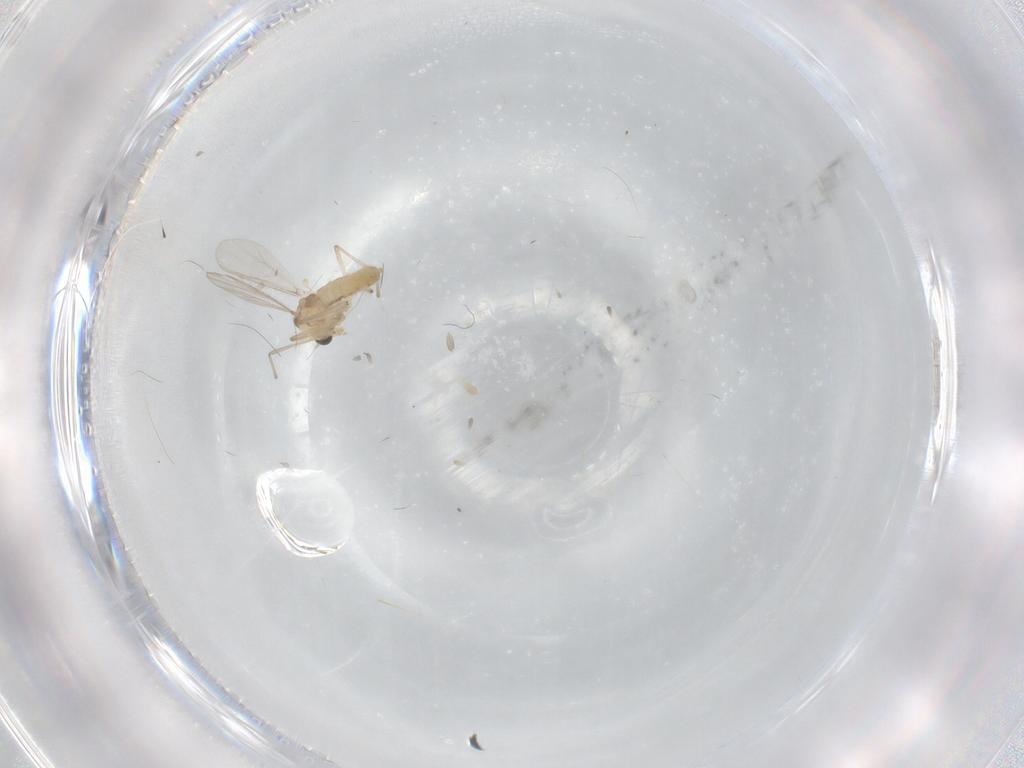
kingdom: Animalia
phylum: Arthropoda
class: Insecta
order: Diptera
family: Chironomidae
